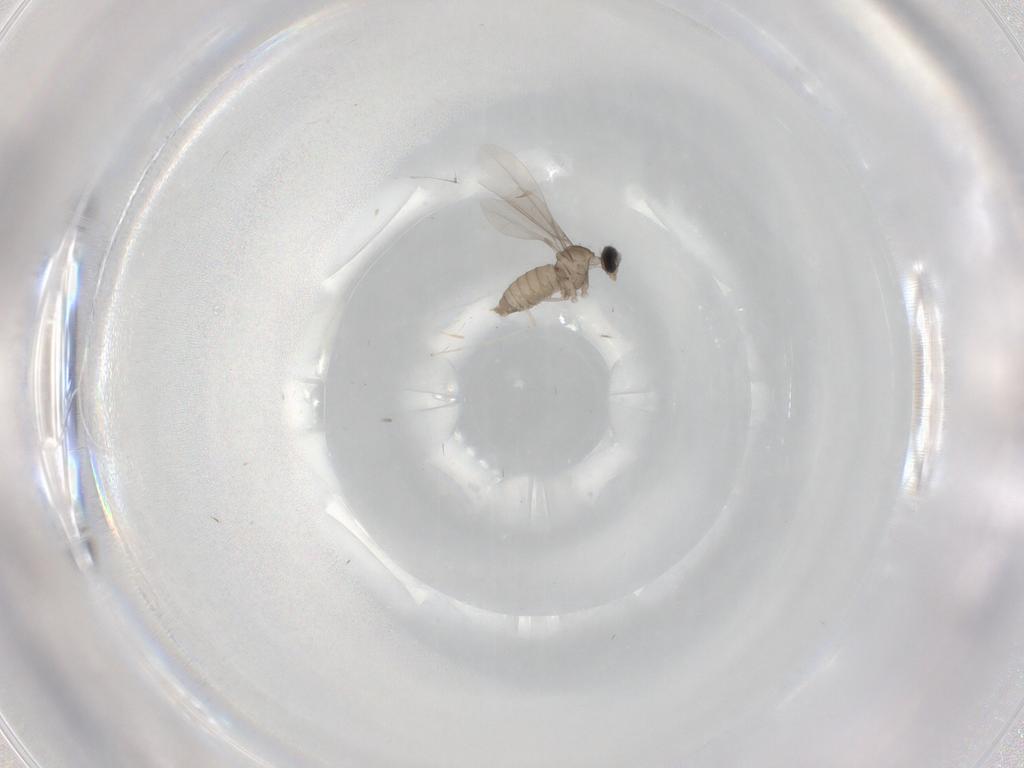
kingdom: Animalia
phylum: Arthropoda
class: Insecta
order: Diptera
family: Cecidomyiidae
